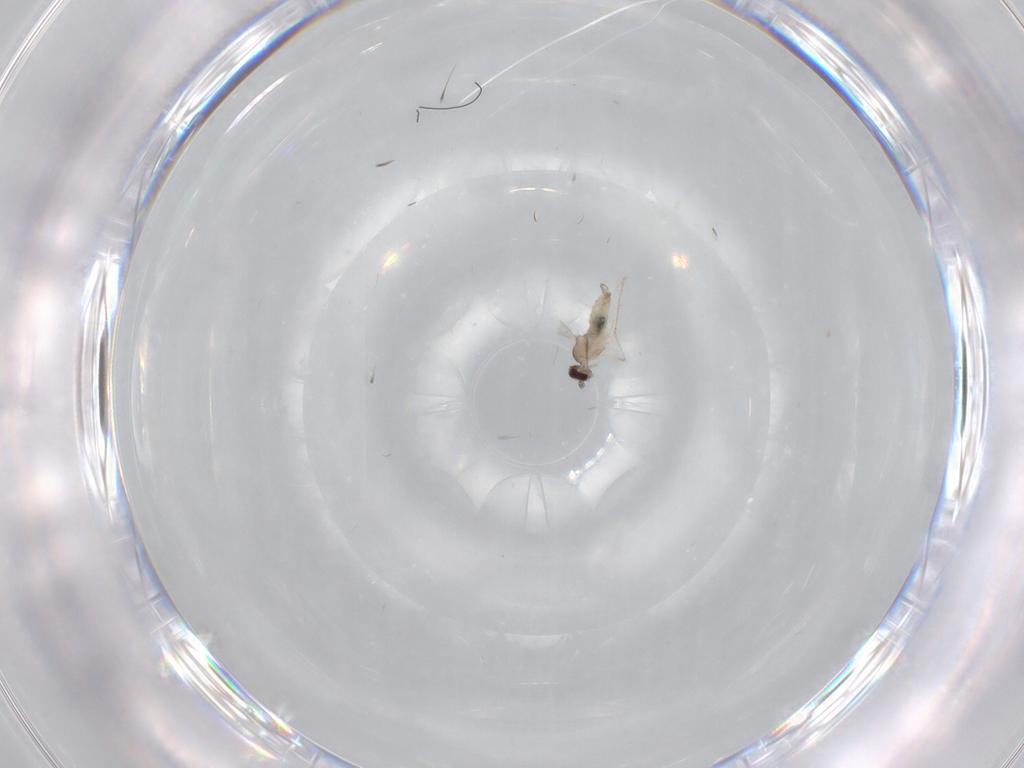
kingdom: Animalia
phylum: Arthropoda
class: Insecta
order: Diptera
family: Cecidomyiidae
